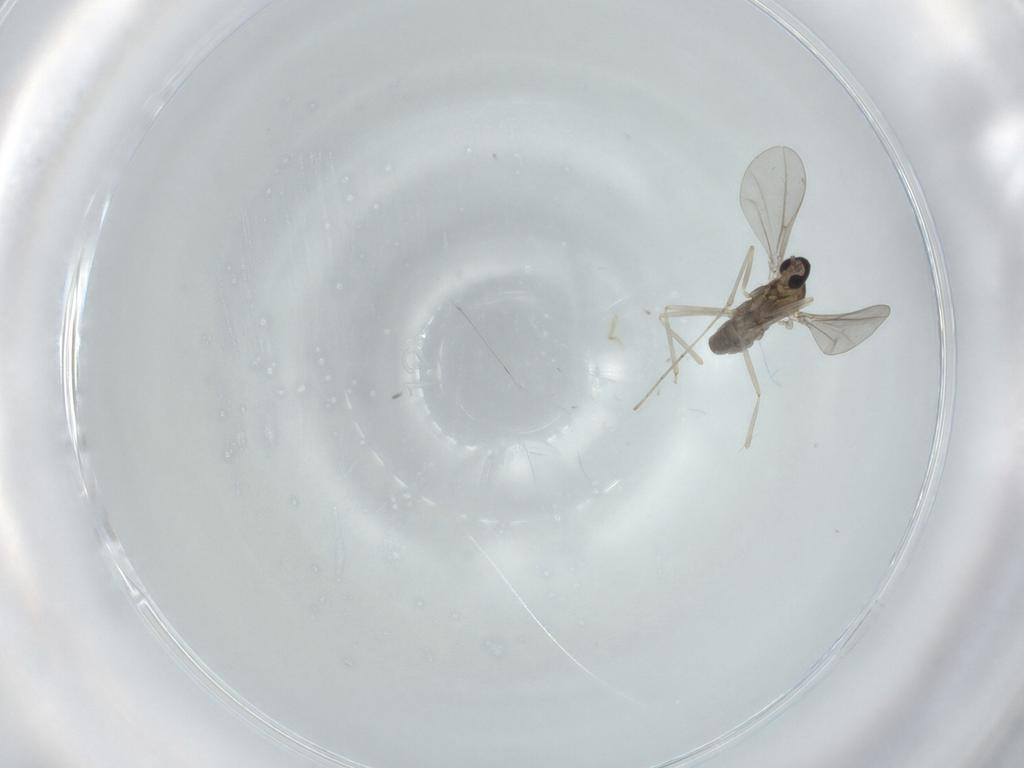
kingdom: Animalia
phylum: Arthropoda
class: Insecta
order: Diptera
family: Cecidomyiidae
